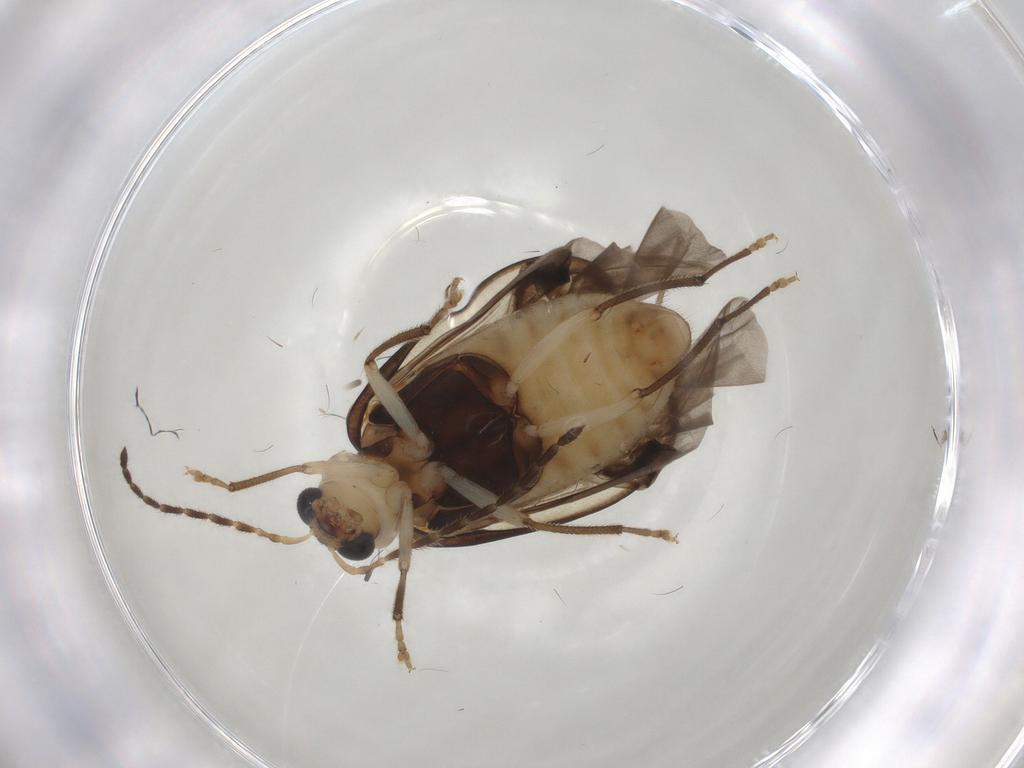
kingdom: Animalia
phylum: Arthropoda
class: Insecta
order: Coleoptera
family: Chrysomelidae
